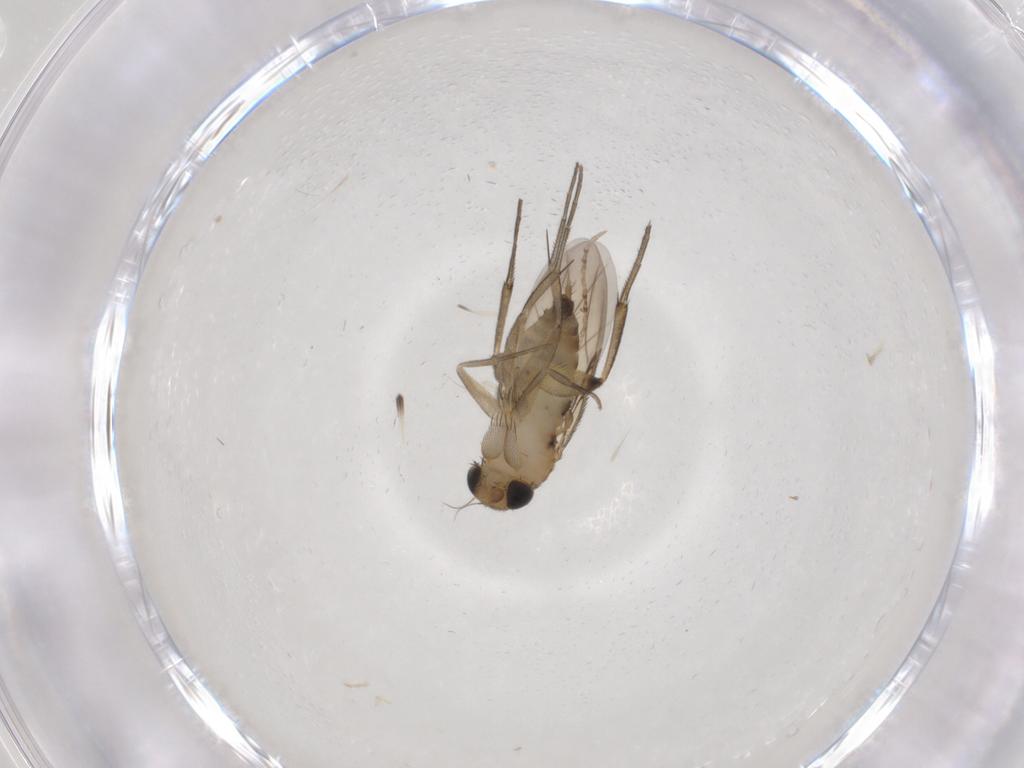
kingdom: Animalia
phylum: Arthropoda
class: Insecta
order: Diptera
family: Phoridae
